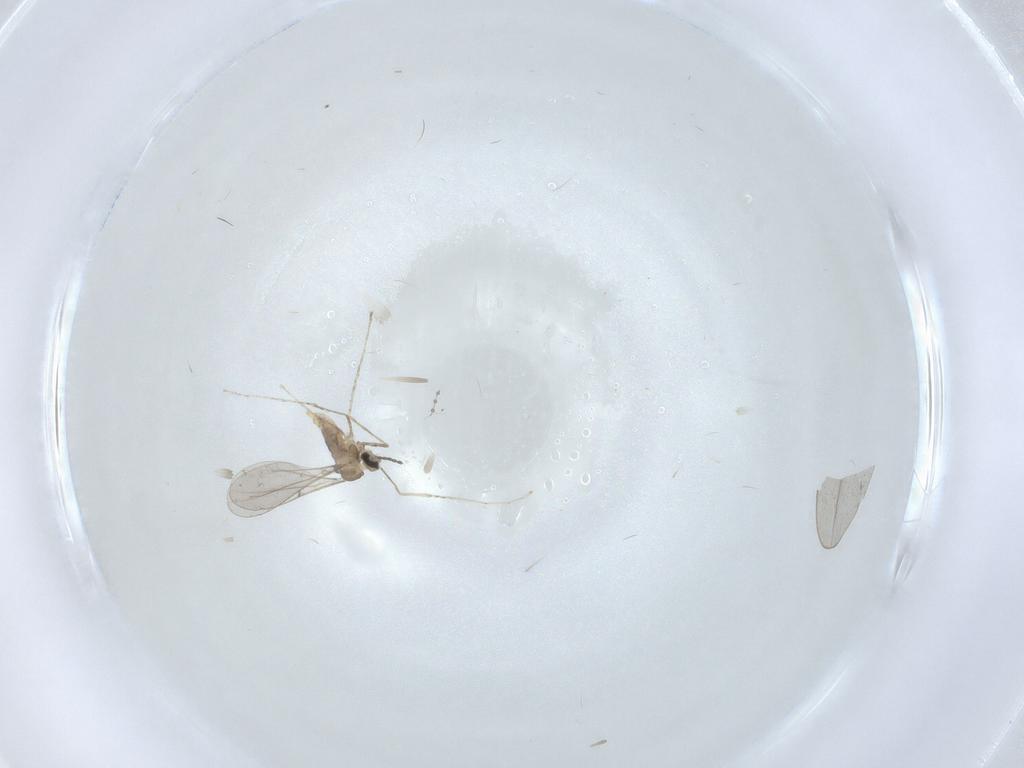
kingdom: Animalia
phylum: Arthropoda
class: Insecta
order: Diptera
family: Cecidomyiidae
